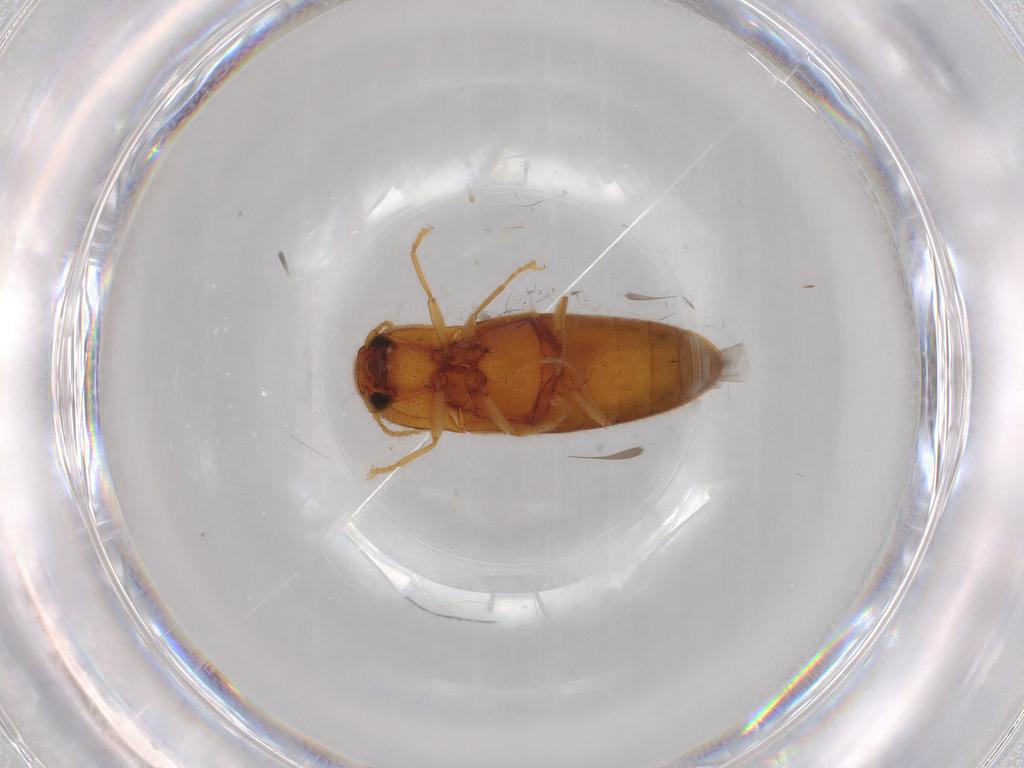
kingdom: Animalia
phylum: Arthropoda
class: Insecta
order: Coleoptera
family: Elateridae
